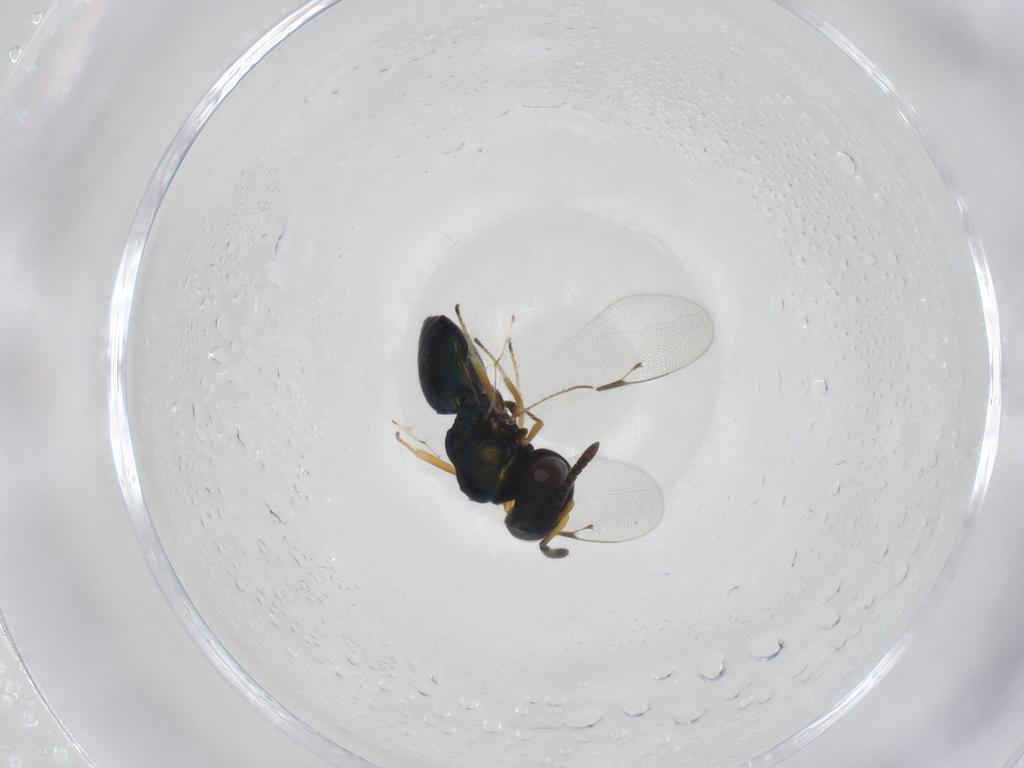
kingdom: Animalia
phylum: Arthropoda
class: Insecta
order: Hymenoptera
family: Pteromalidae
